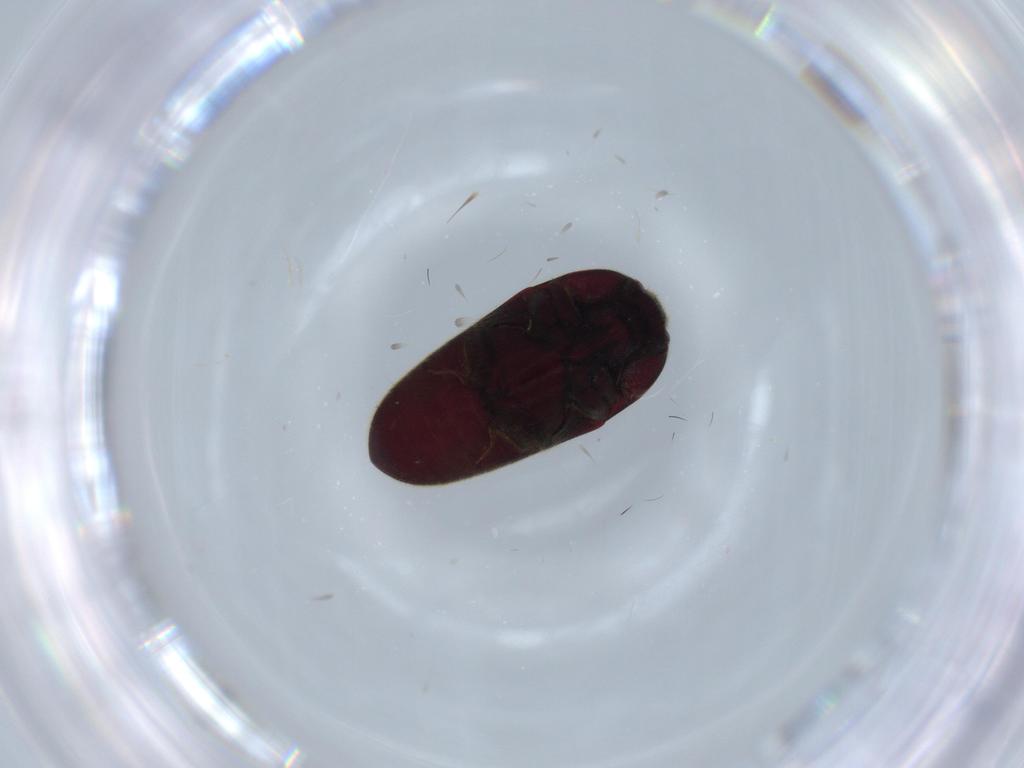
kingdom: Animalia
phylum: Arthropoda
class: Insecta
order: Coleoptera
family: Throscidae
